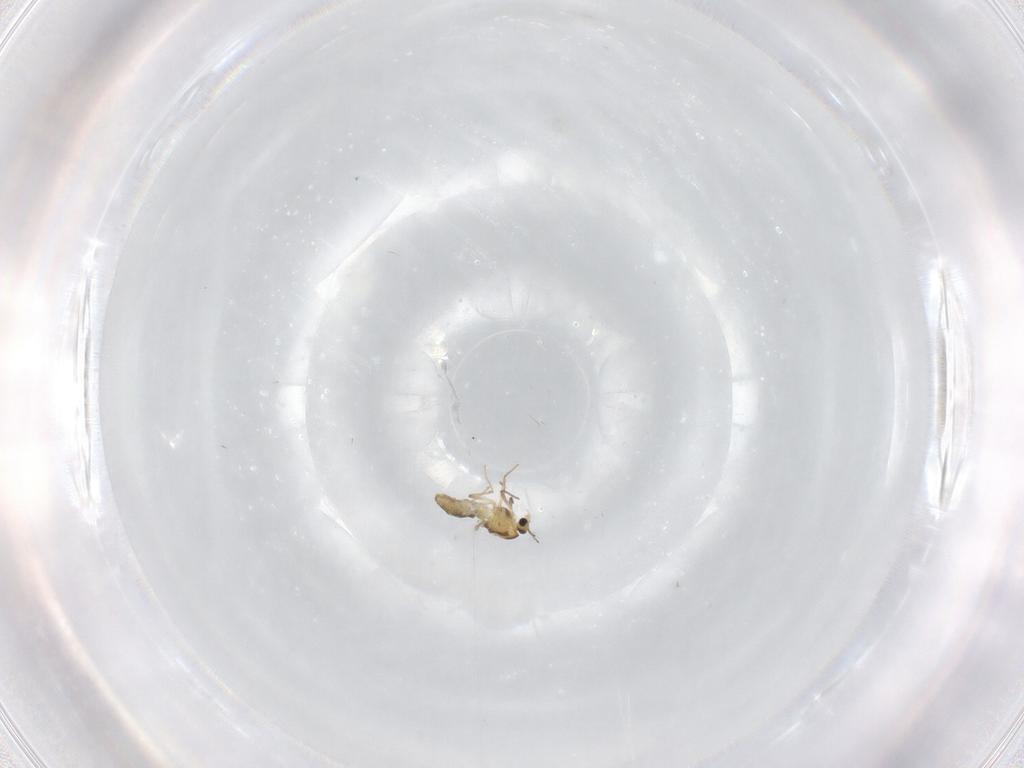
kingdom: Animalia
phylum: Arthropoda
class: Insecta
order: Diptera
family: Chironomidae
